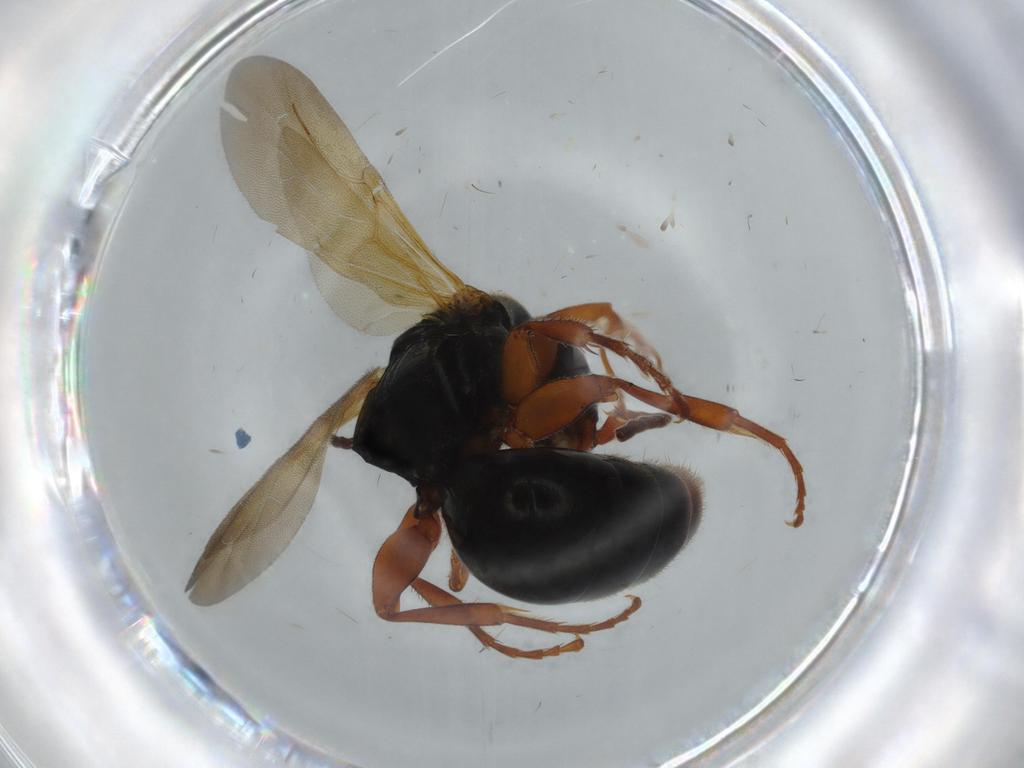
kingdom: Animalia
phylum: Arthropoda
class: Insecta
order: Hymenoptera
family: Bethylidae
